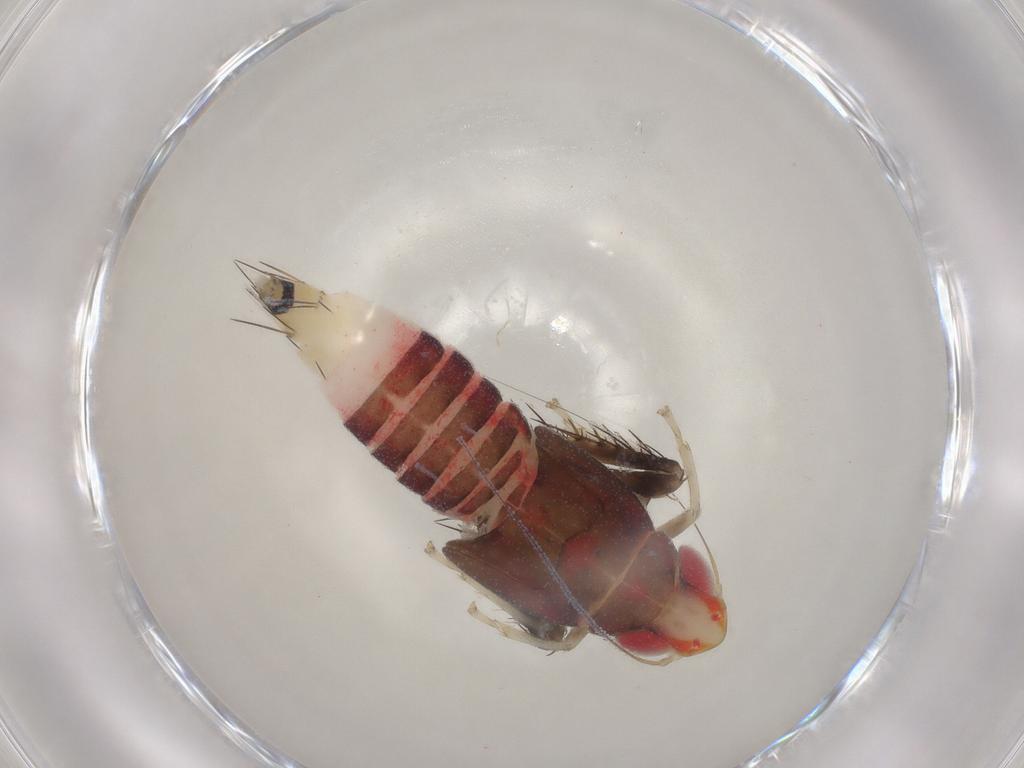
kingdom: Animalia
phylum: Arthropoda
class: Insecta
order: Hemiptera
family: Cicadellidae
